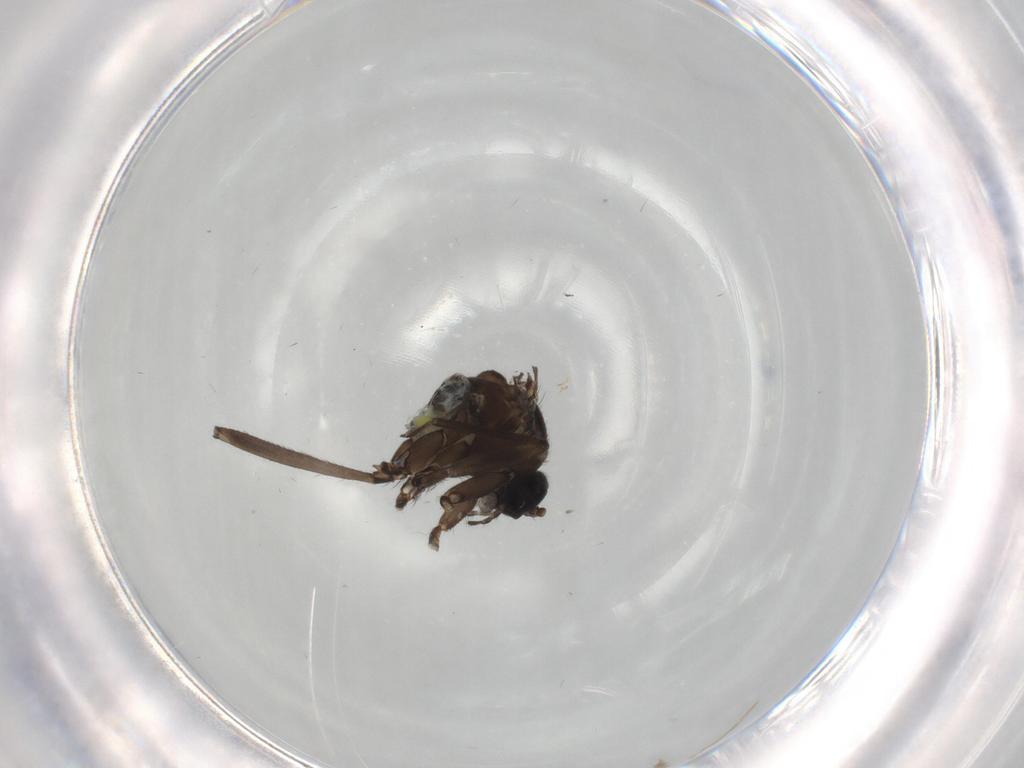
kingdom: Animalia
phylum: Arthropoda
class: Insecta
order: Diptera
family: Sciaridae
